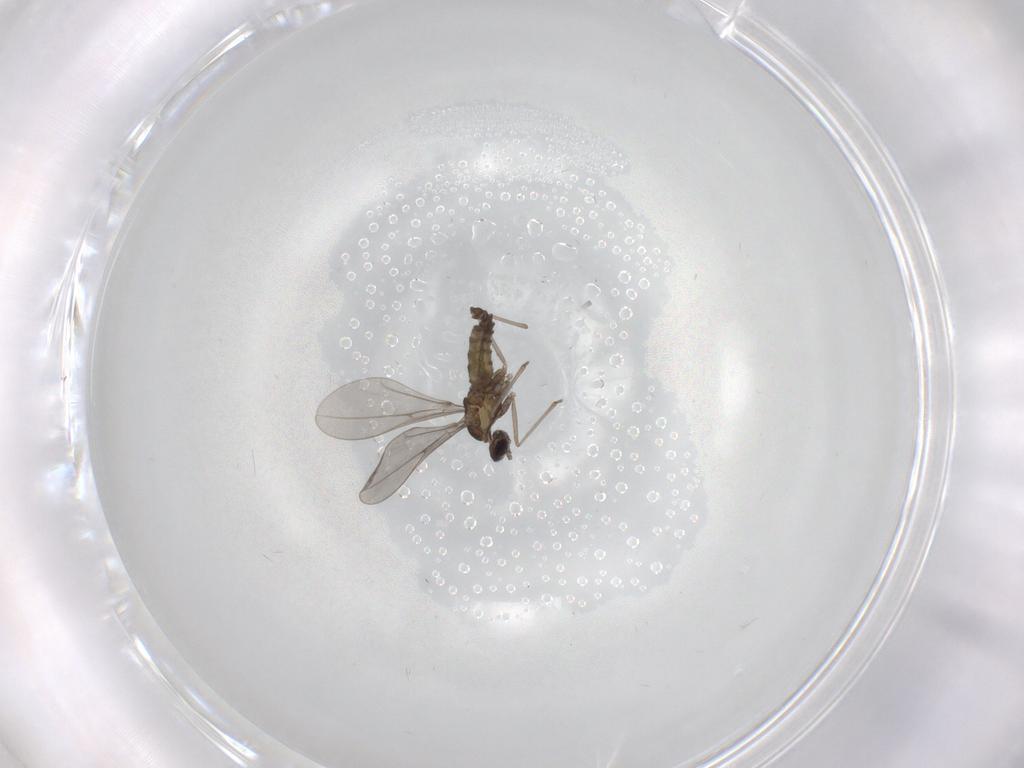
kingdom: Animalia
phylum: Arthropoda
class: Insecta
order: Diptera
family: Cecidomyiidae
